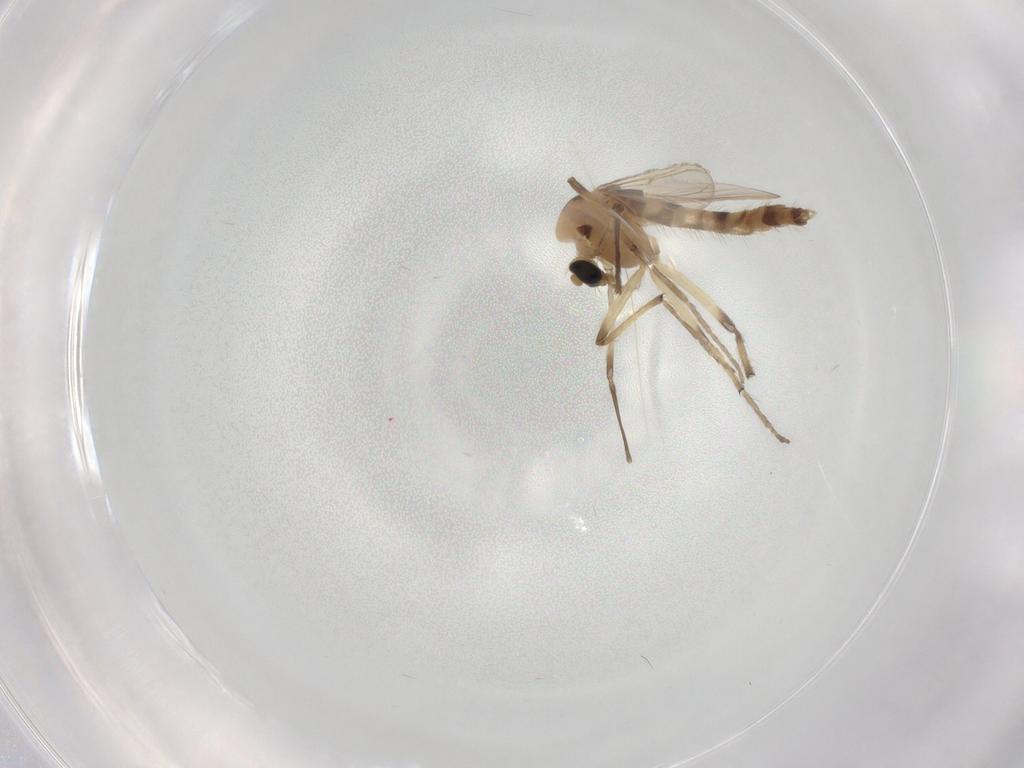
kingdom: Animalia
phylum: Arthropoda
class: Insecta
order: Diptera
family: Chironomidae
